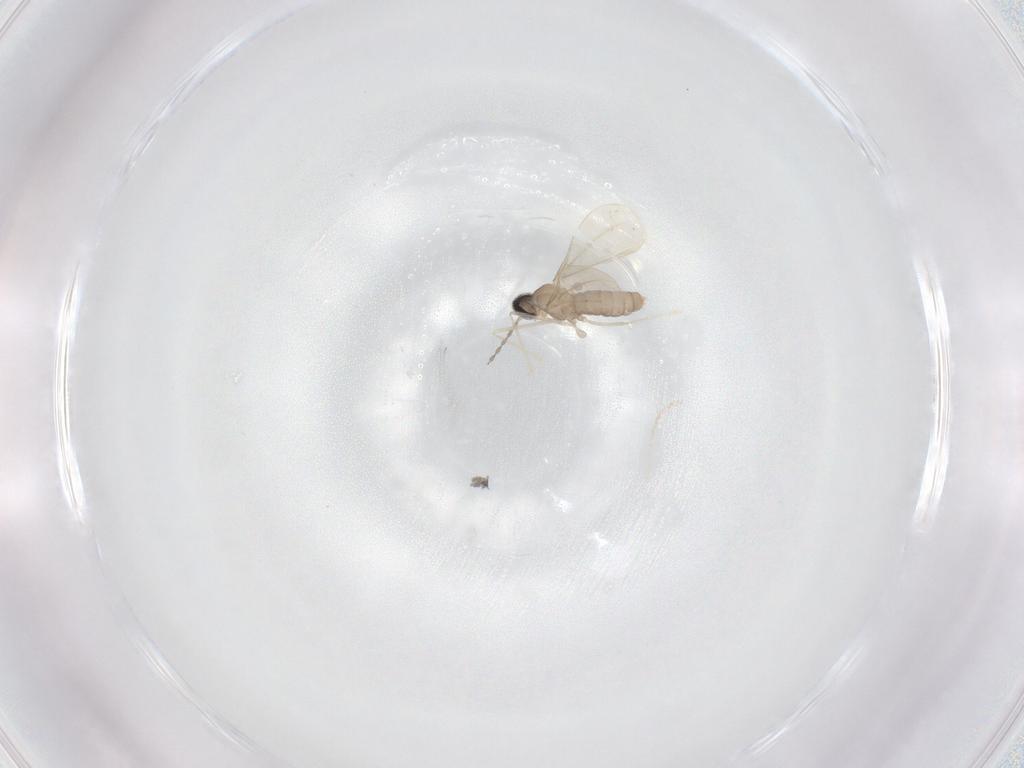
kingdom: Animalia
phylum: Arthropoda
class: Insecta
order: Diptera
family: Cecidomyiidae
